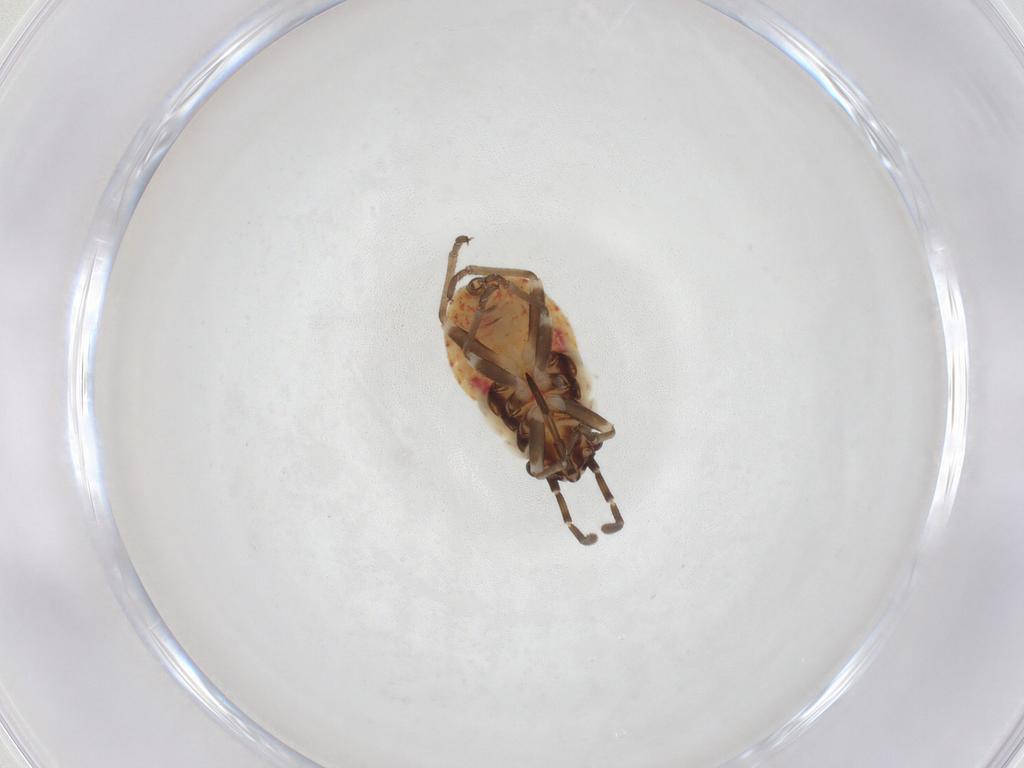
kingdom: Animalia
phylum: Arthropoda
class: Insecta
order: Hemiptera
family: Lygaeidae
